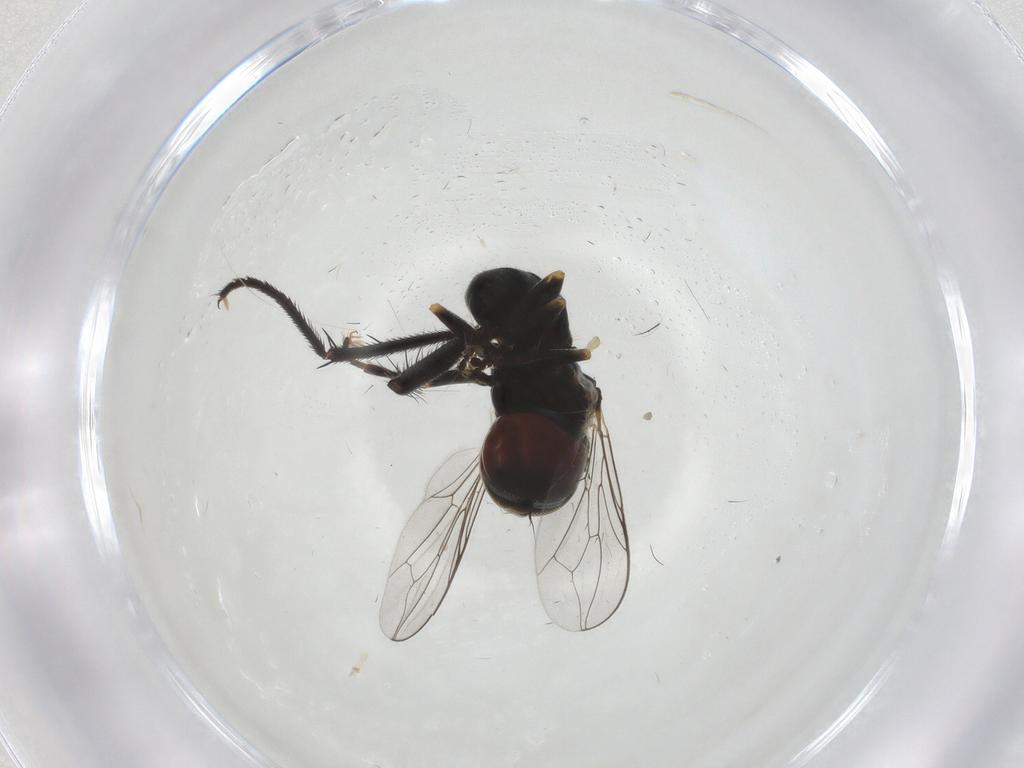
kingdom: Animalia
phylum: Arthropoda
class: Insecta
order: Diptera
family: Pipunculidae
